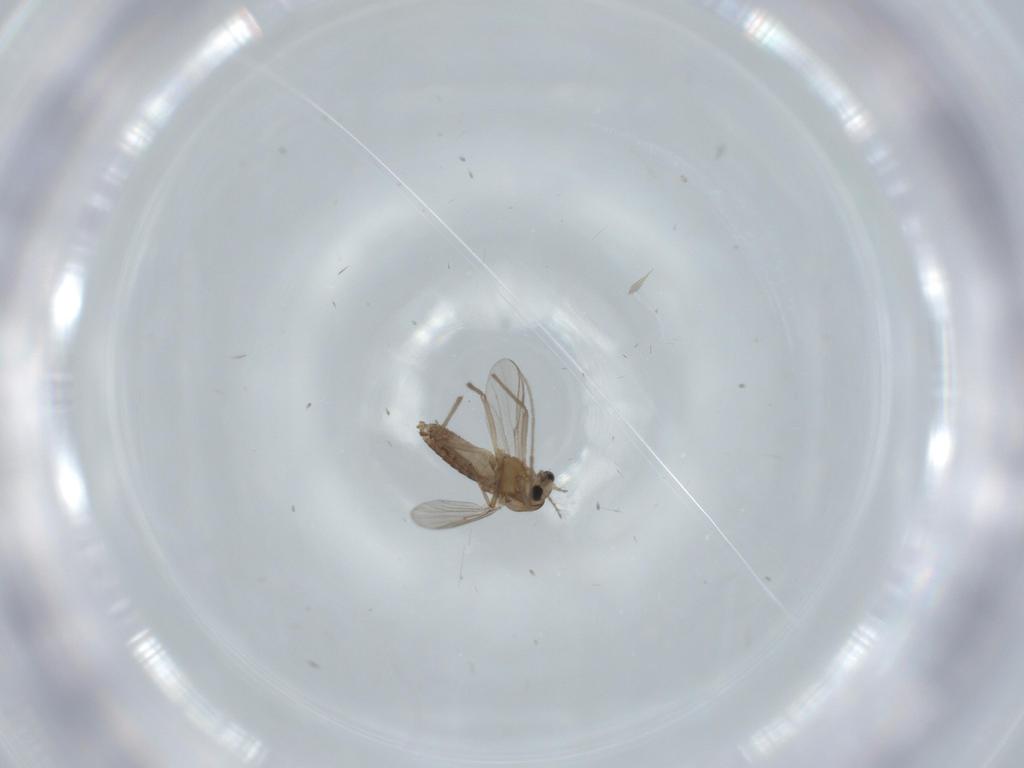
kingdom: Animalia
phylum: Arthropoda
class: Insecta
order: Diptera
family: Chironomidae
